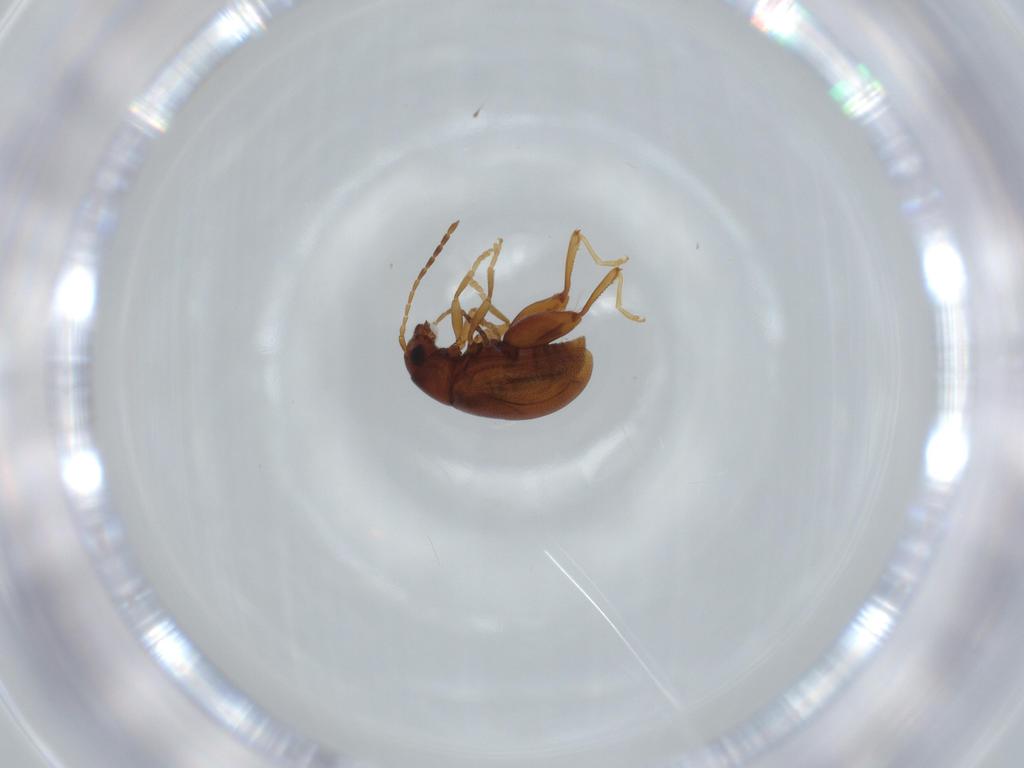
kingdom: Animalia
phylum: Arthropoda
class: Insecta
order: Coleoptera
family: Chrysomelidae
